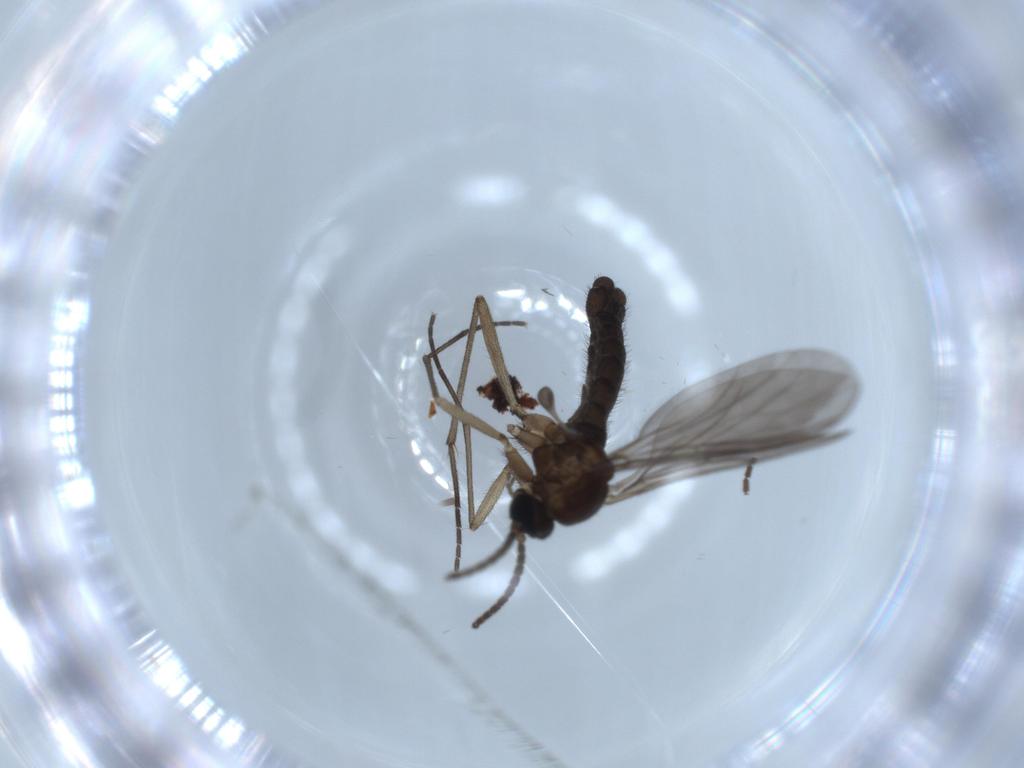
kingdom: Animalia
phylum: Arthropoda
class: Insecta
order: Diptera
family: Sciaridae
